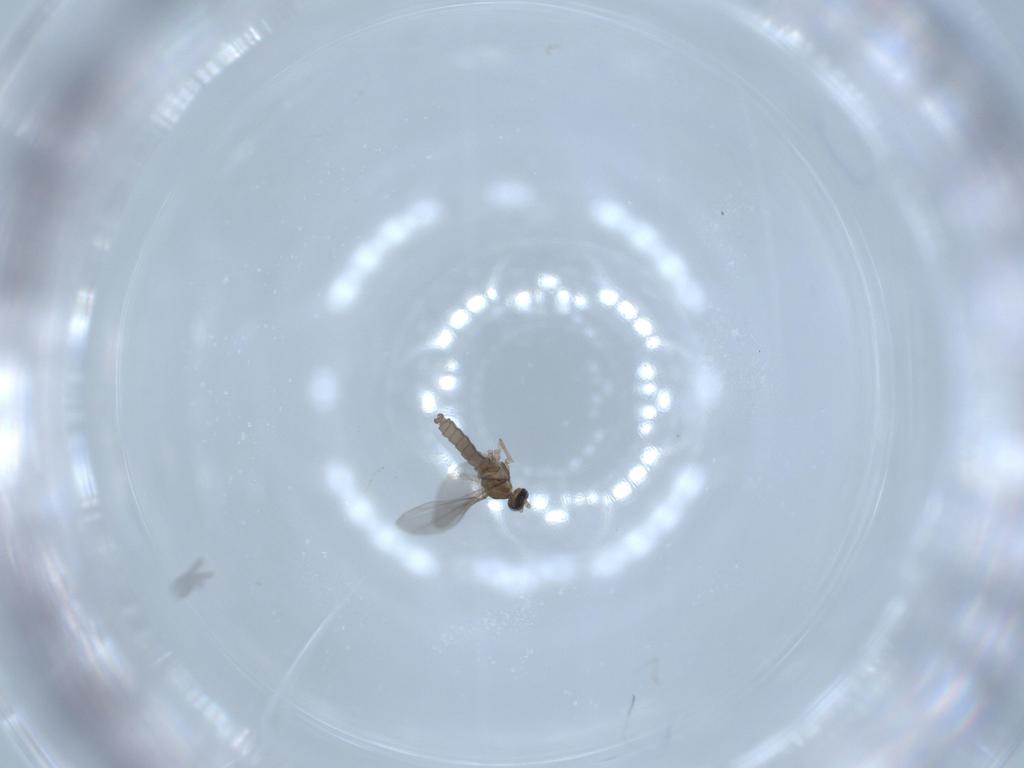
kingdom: Animalia
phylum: Arthropoda
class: Insecta
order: Diptera
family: Cecidomyiidae
